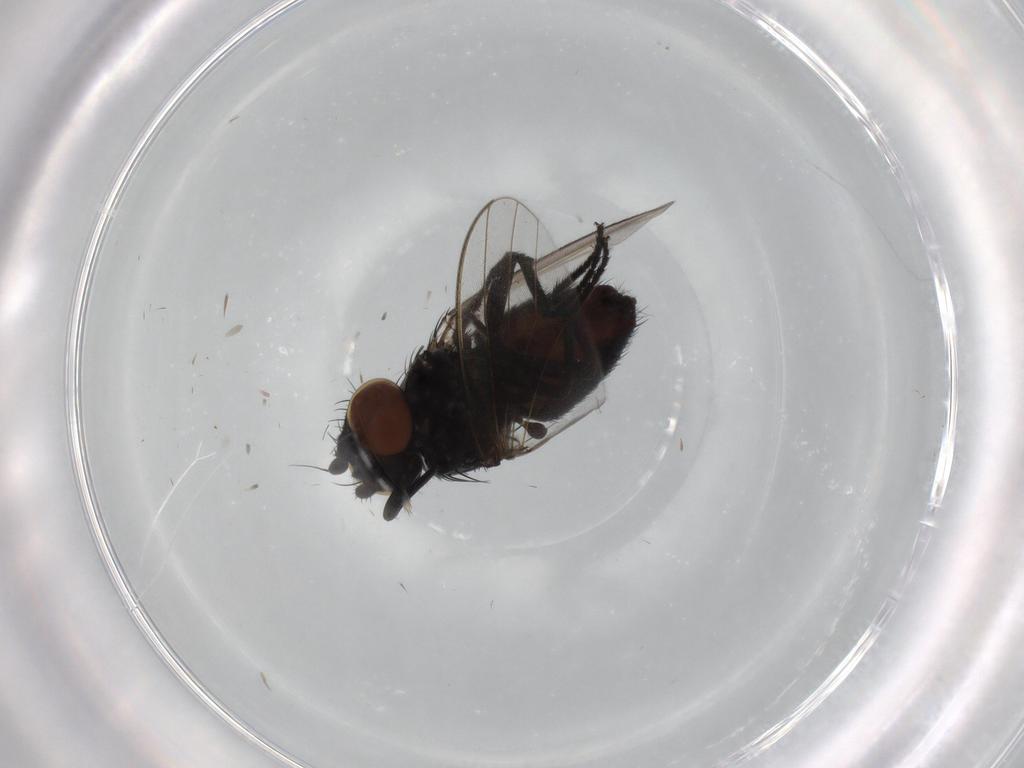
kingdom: Animalia
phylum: Arthropoda
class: Insecta
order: Diptera
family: Milichiidae
